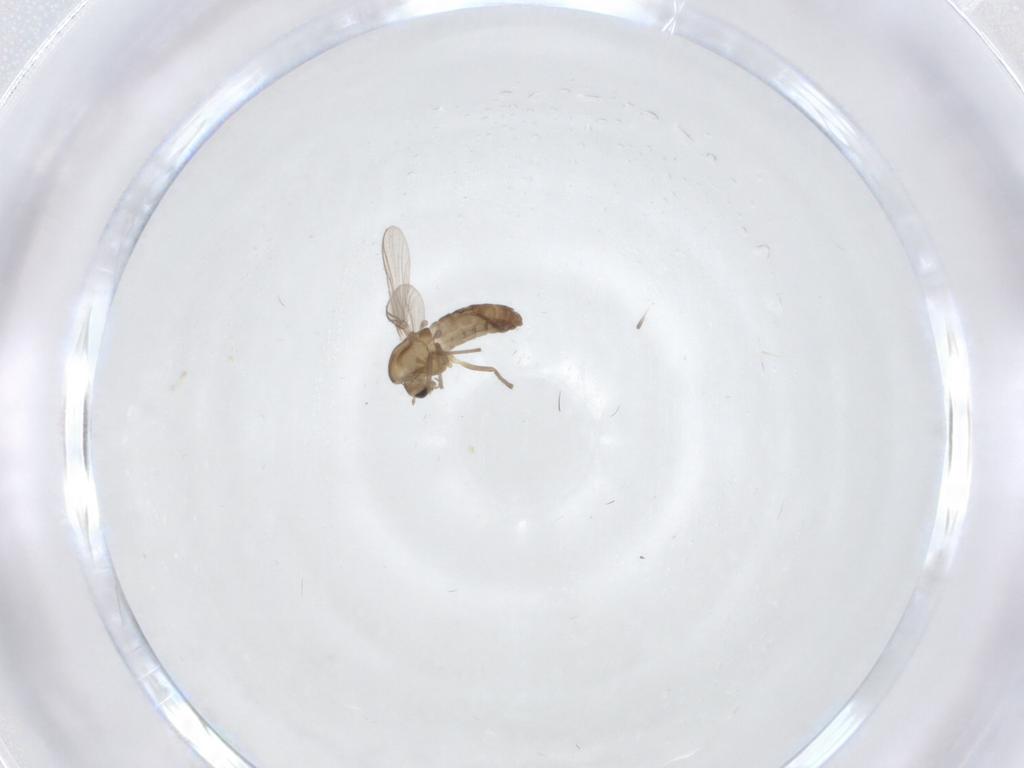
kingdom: Animalia
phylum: Arthropoda
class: Insecta
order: Diptera
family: Chironomidae
